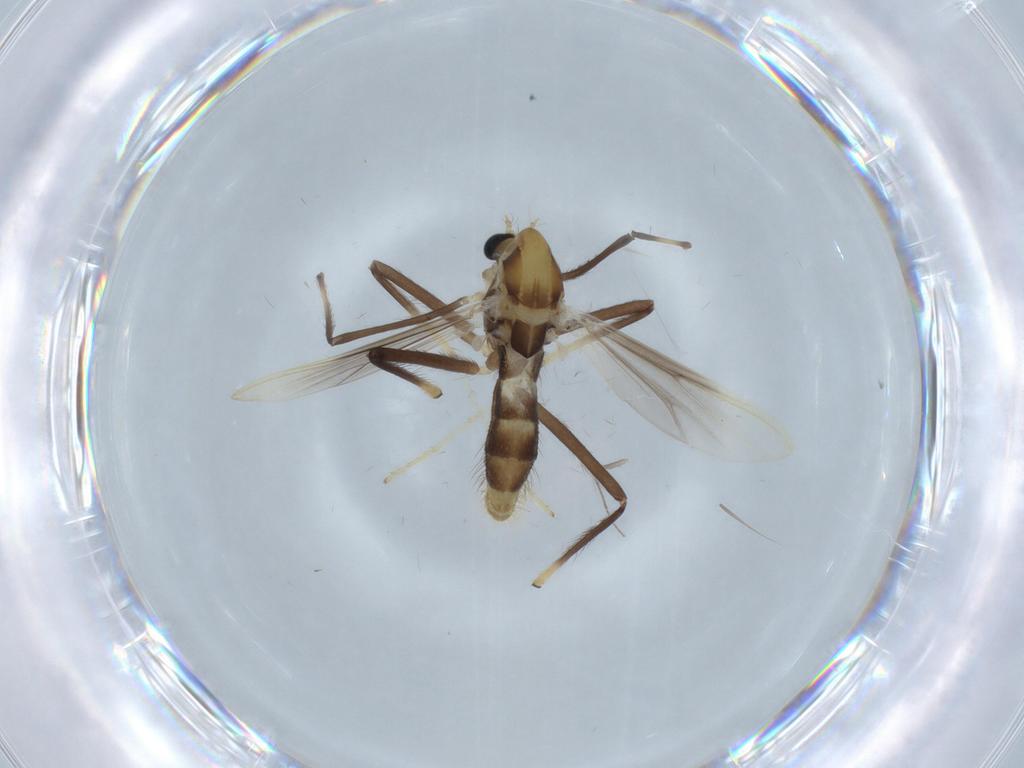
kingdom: Animalia
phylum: Arthropoda
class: Insecta
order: Diptera
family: Chironomidae
